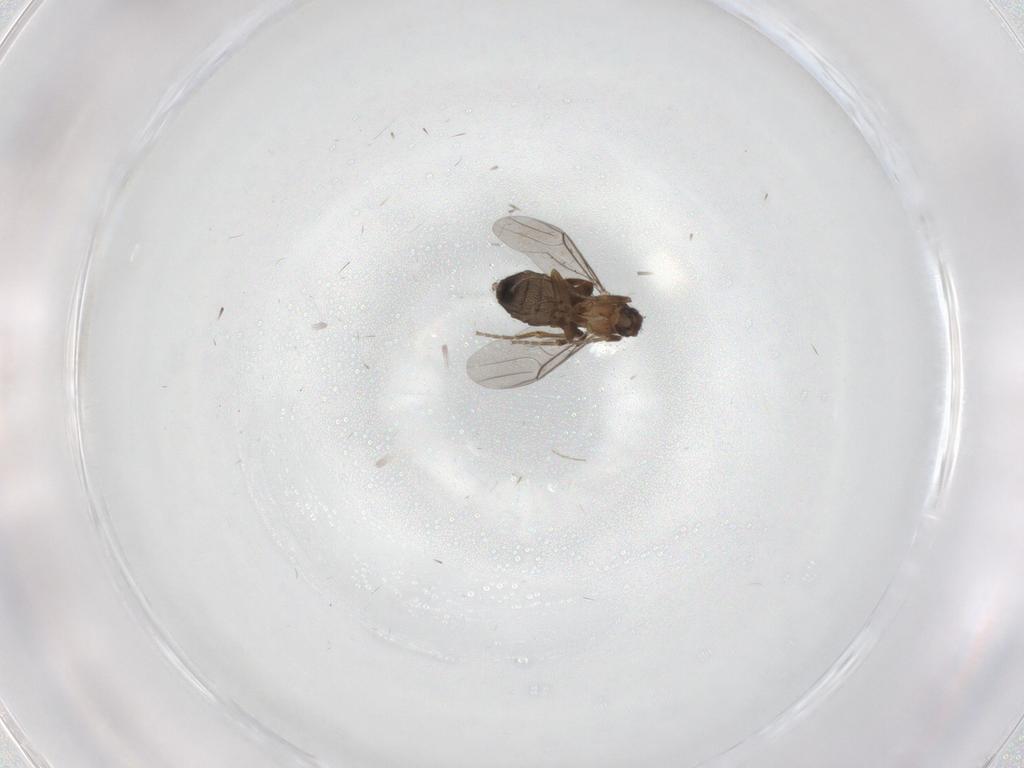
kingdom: Animalia
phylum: Arthropoda
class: Insecta
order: Diptera
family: Phoridae
